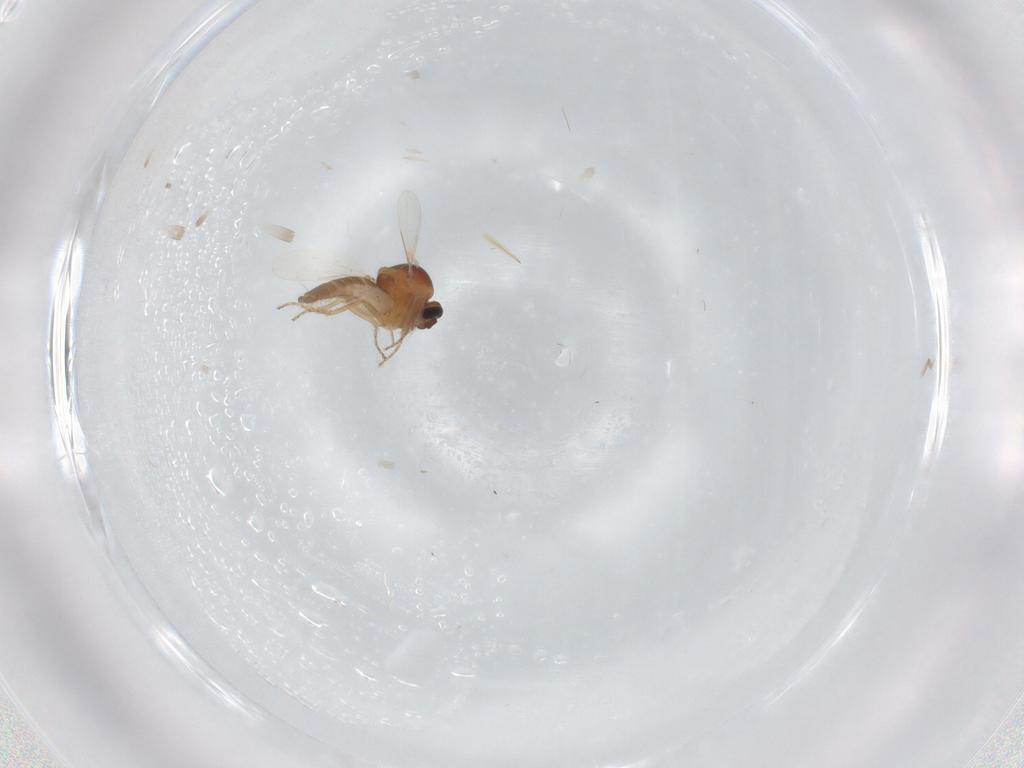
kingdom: Animalia
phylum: Arthropoda
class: Insecta
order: Diptera
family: Ceratopogonidae
